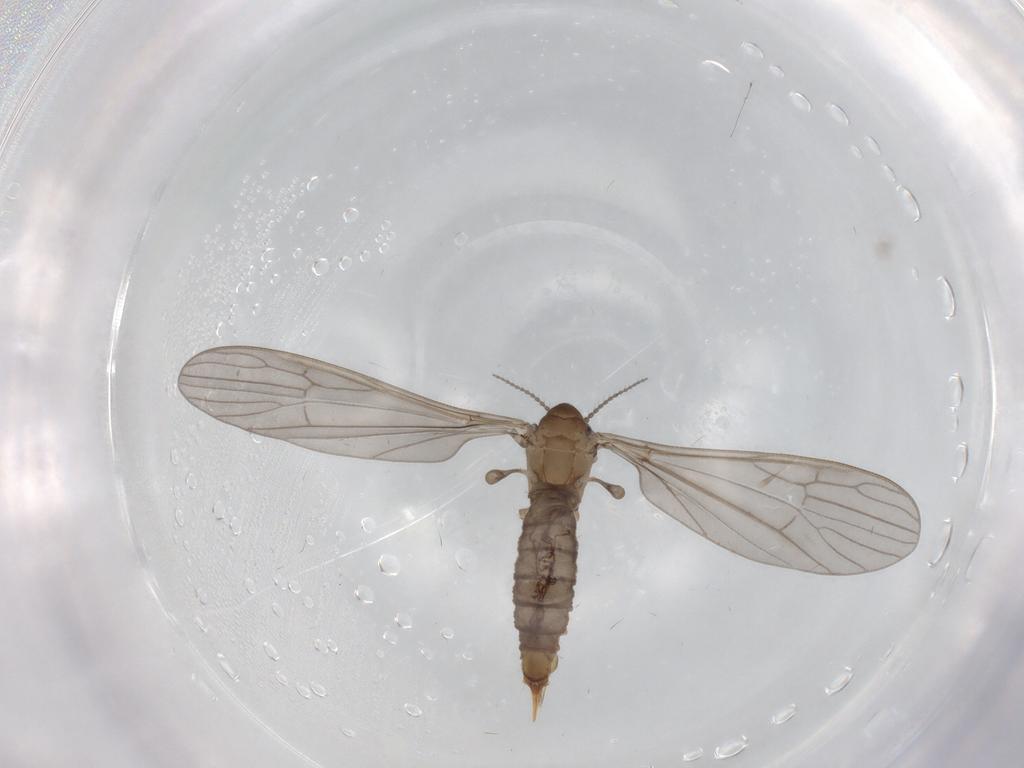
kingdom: Animalia
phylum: Arthropoda
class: Insecta
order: Diptera
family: Limoniidae
